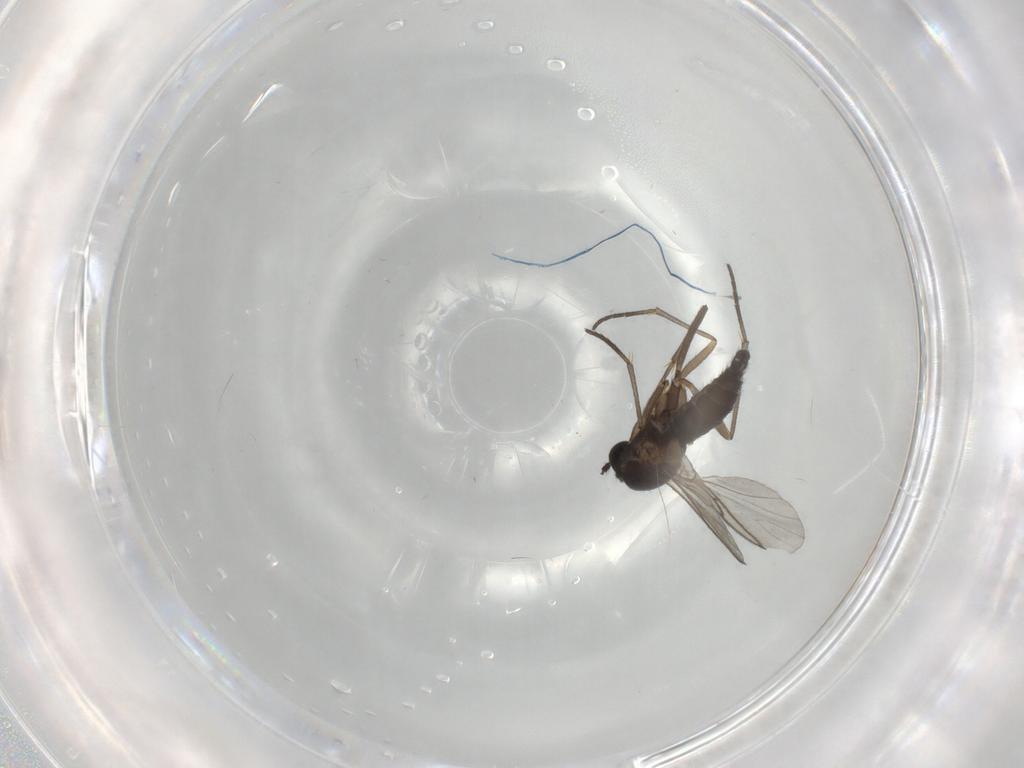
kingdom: Animalia
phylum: Arthropoda
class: Insecta
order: Diptera
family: Sciaridae
